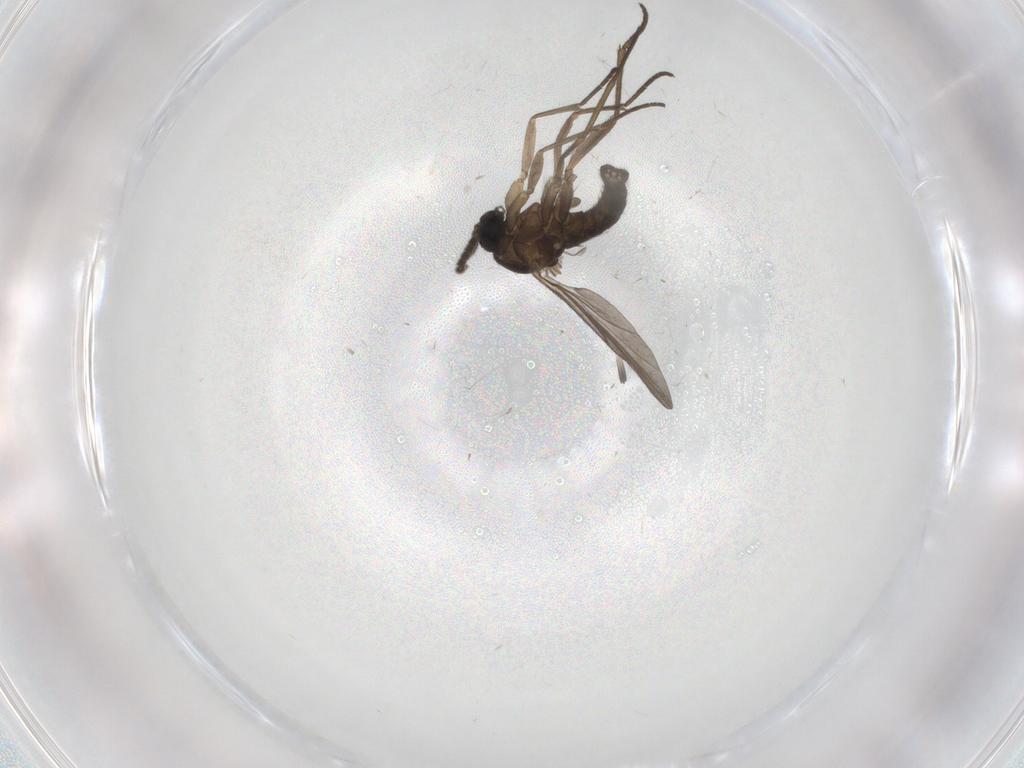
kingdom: Animalia
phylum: Arthropoda
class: Insecta
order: Diptera
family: Sciaridae
